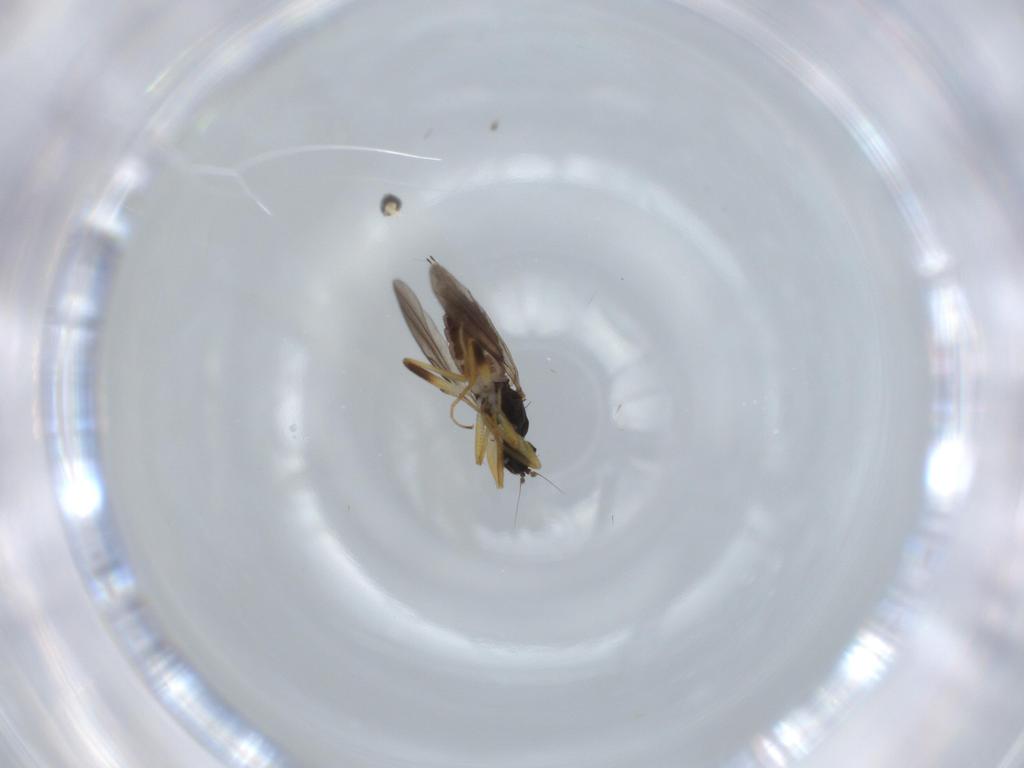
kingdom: Animalia
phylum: Arthropoda
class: Insecta
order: Diptera
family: Hybotidae
